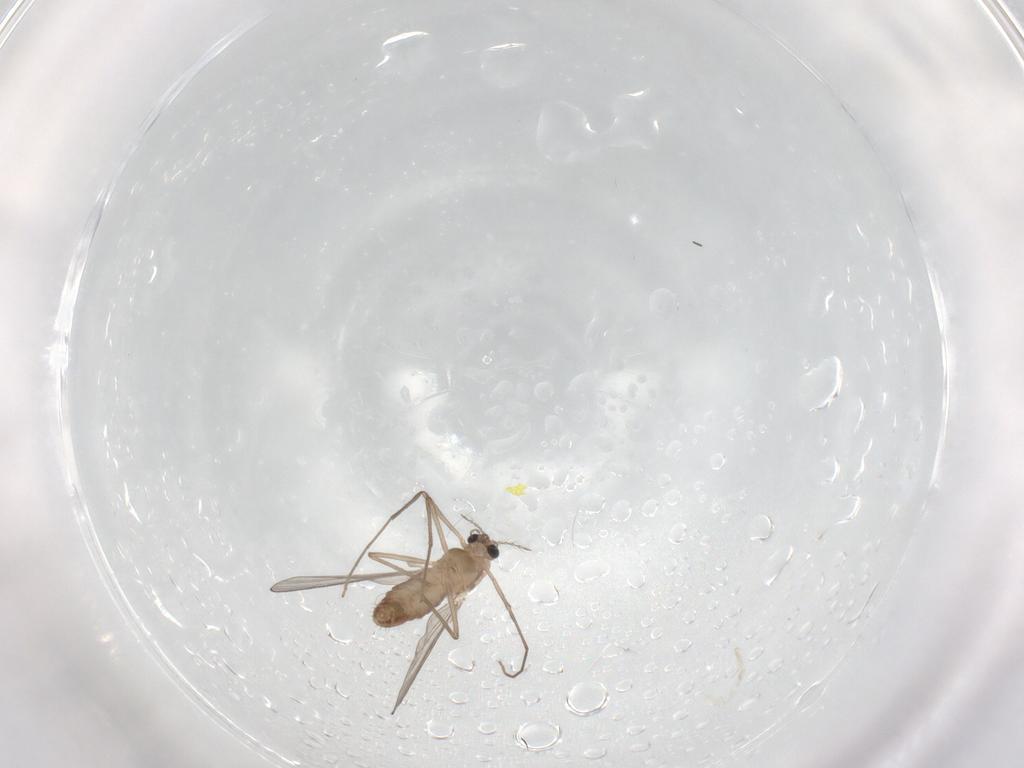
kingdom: Animalia
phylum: Arthropoda
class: Insecta
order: Diptera
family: Chironomidae
